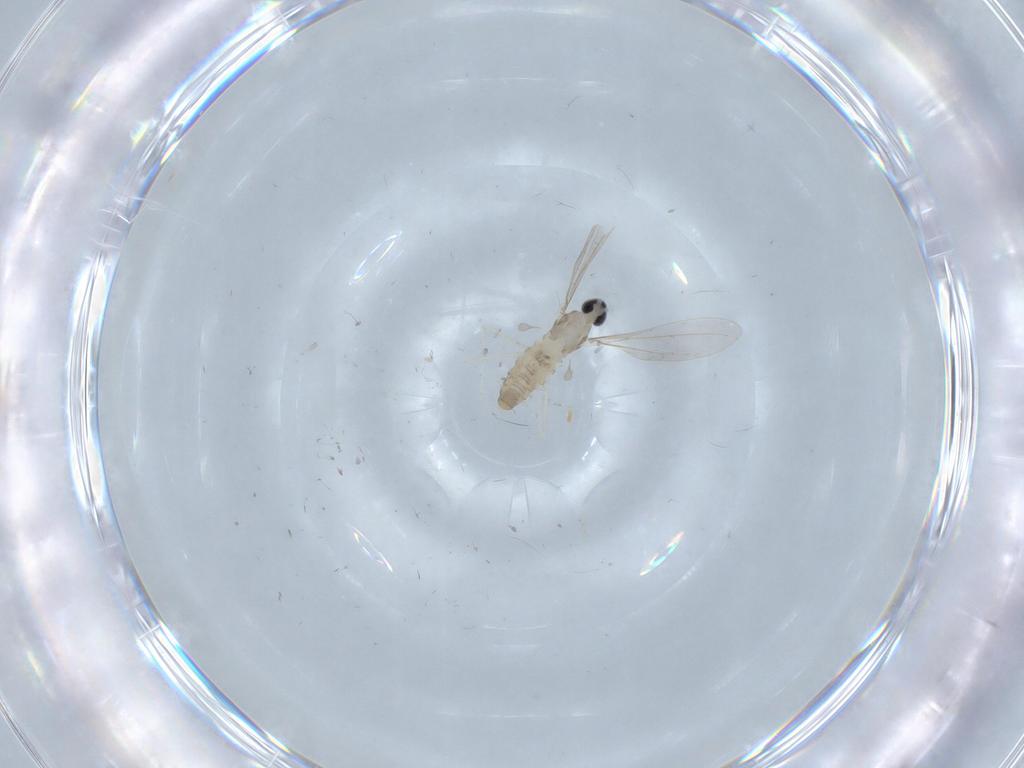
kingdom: Animalia
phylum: Arthropoda
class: Insecta
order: Diptera
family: Cecidomyiidae
